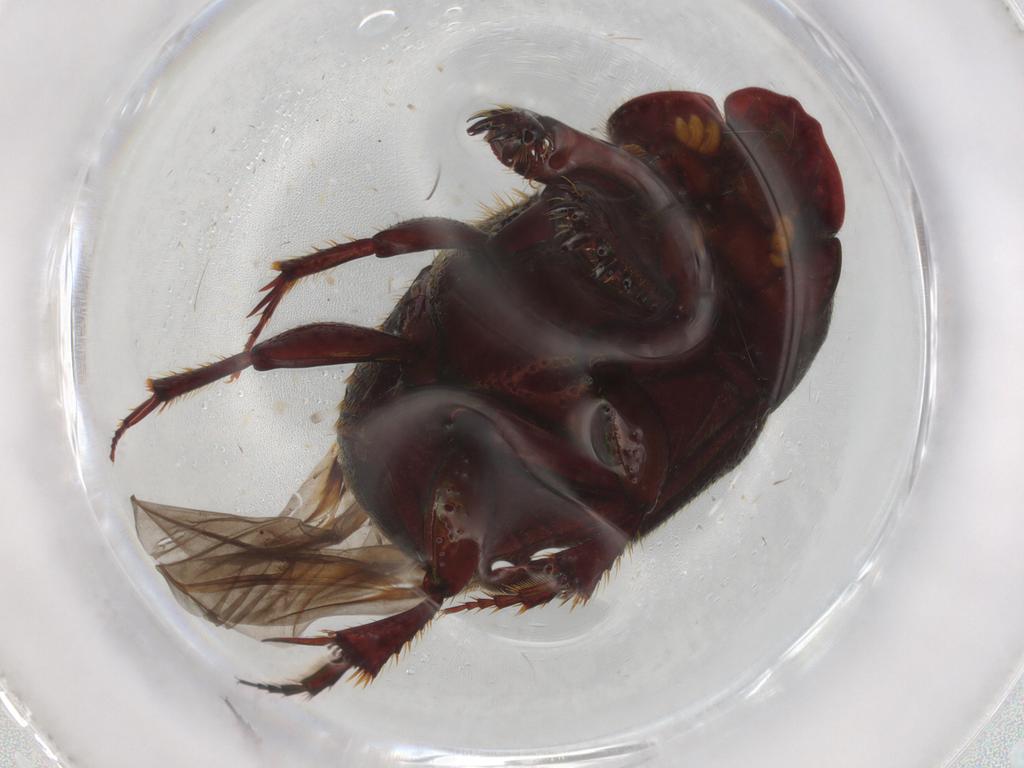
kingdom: Animalia
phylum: Arthropoda
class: Insecta
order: Coleoptera
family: Scarabaeidae
